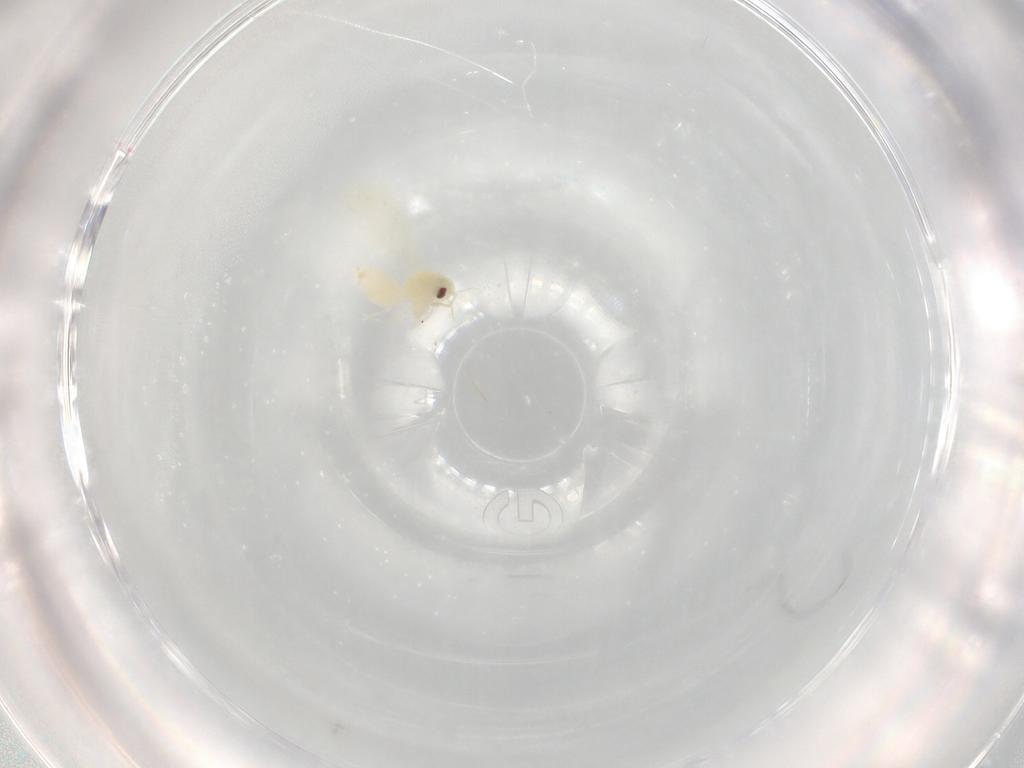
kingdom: Animalia
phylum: Arthropoda
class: Insecta
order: Hemiptera
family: Aleyrodidae
